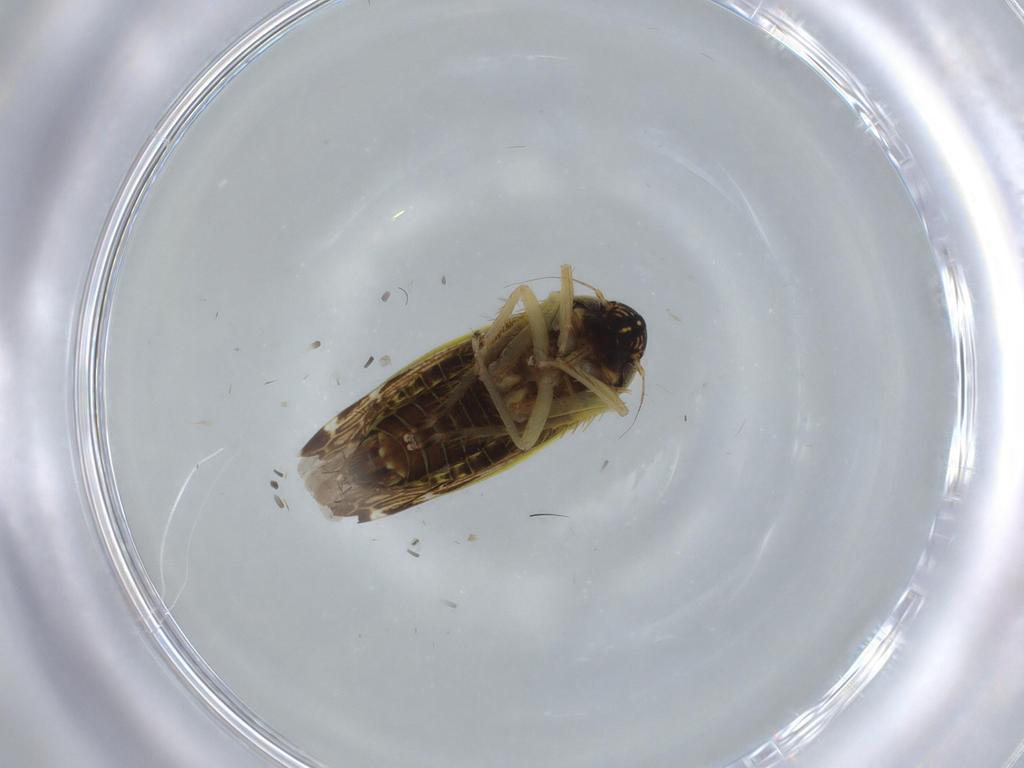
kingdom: Animalia
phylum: Arthropoda
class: Insecta
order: Hemiptera
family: Cicadellidae
